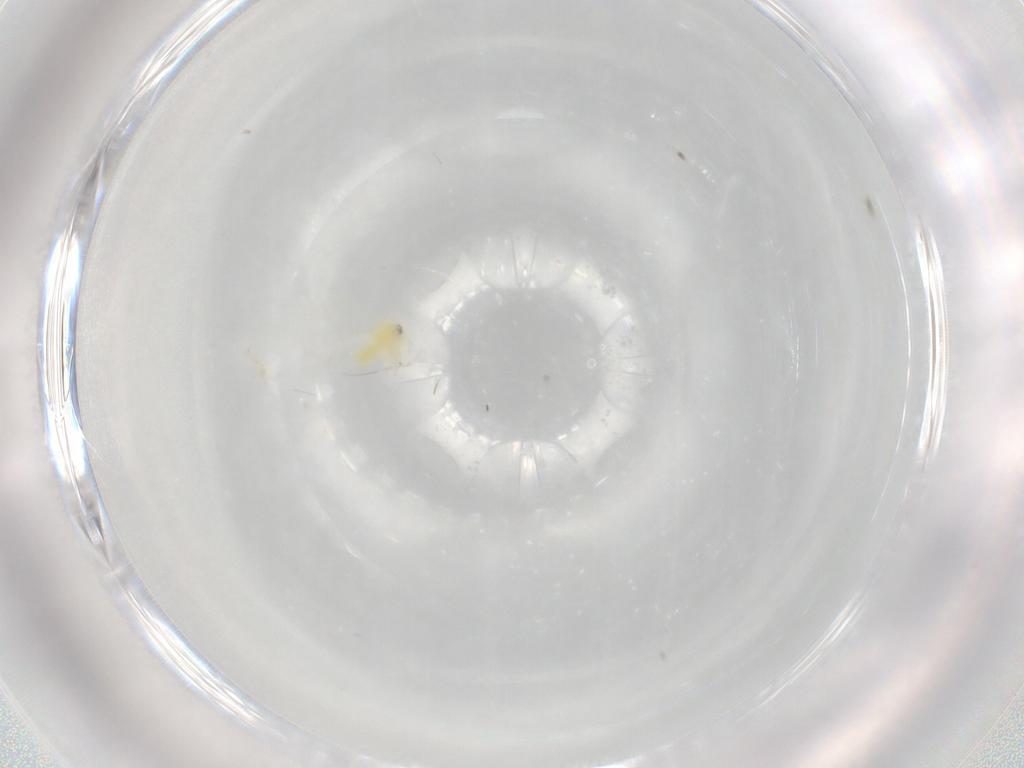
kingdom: Animalia
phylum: Arthropoda
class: Insecta
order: Hemiptera
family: Aleyrodidae
